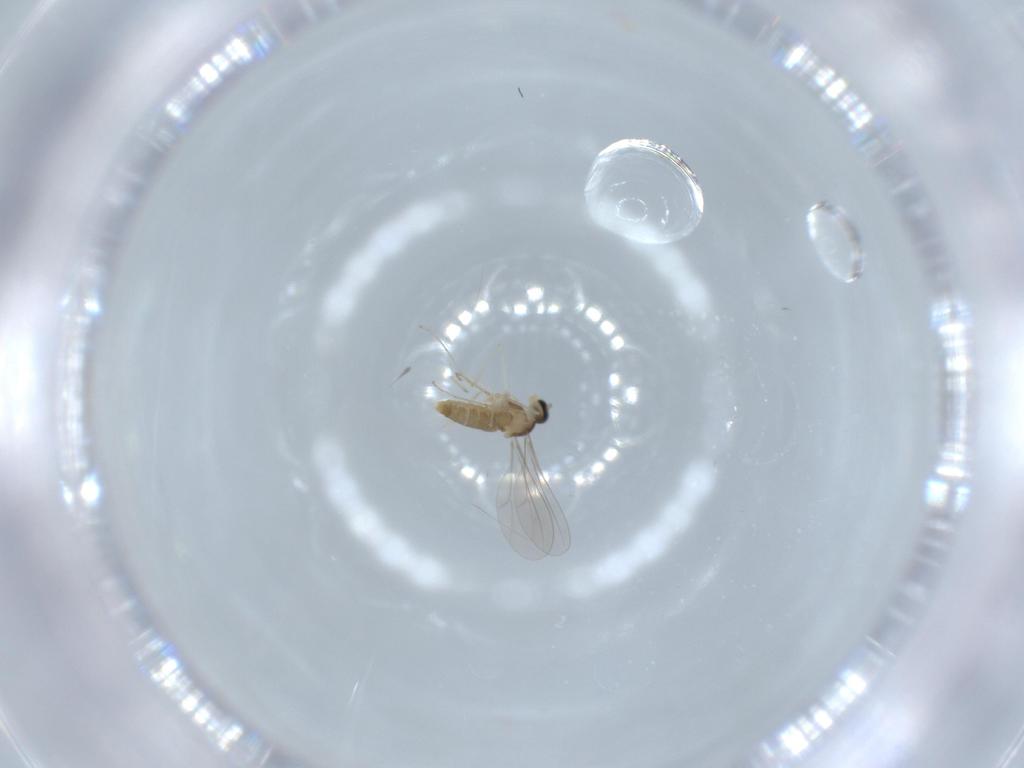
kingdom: Animalia
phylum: Arthropoda
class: Insecta
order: Diptera
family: Cecidomyiidae
